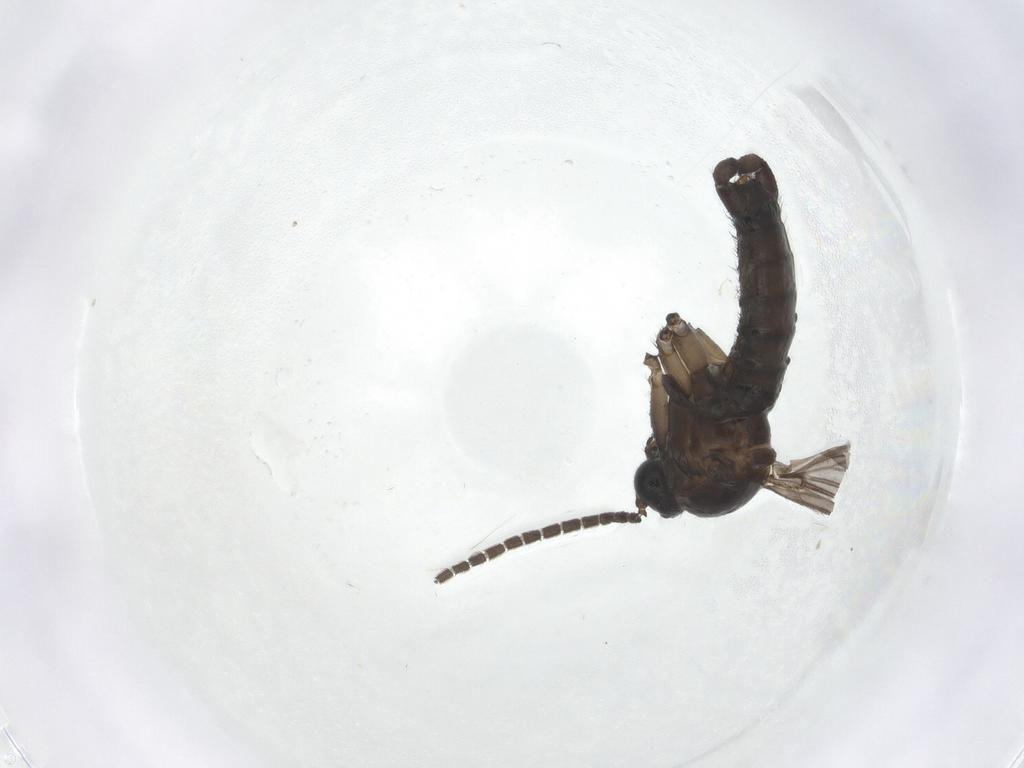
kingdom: Animalia
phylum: Arthropoda
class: Insecta
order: Diptera
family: Sciaridae
